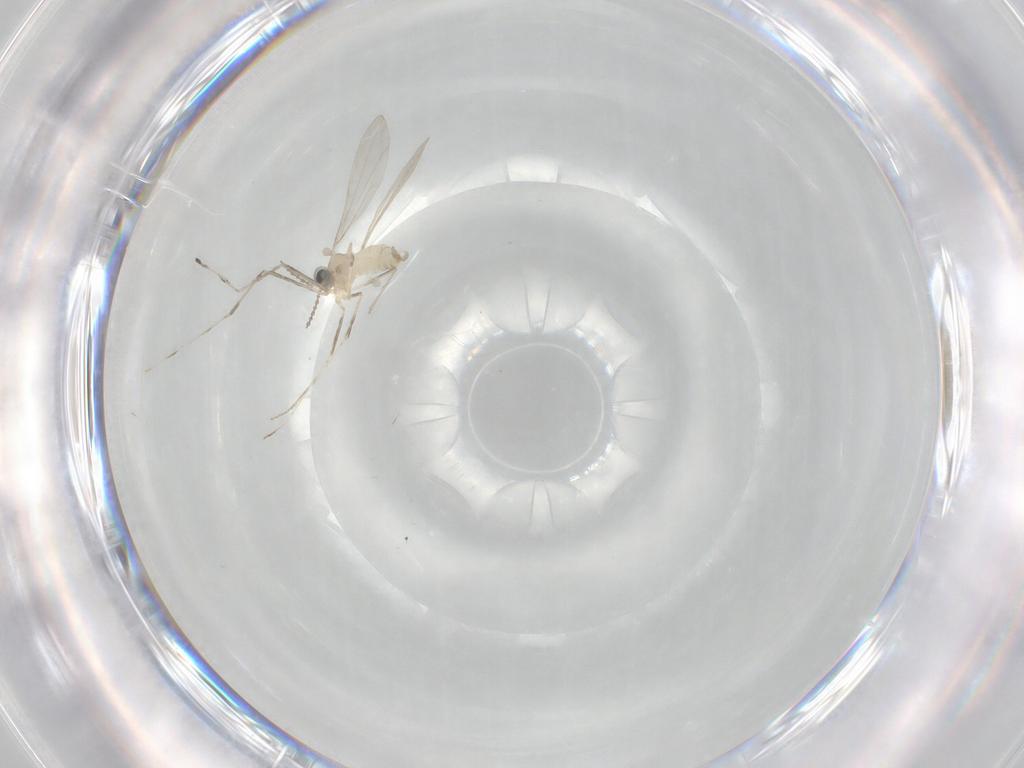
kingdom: Animalia
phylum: Arthropoda
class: Insecta
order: Diptera
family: Cecidomyiidae
